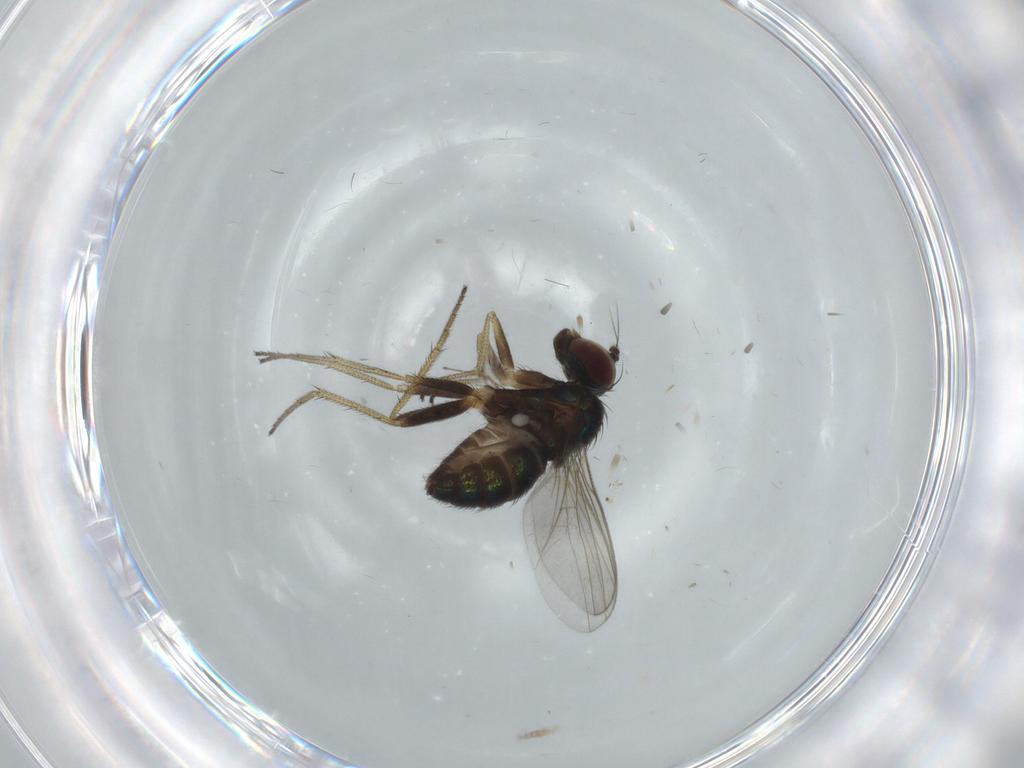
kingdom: Animalia
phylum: Arthropoda
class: Insecta
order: Diptera
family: Chironomidae
